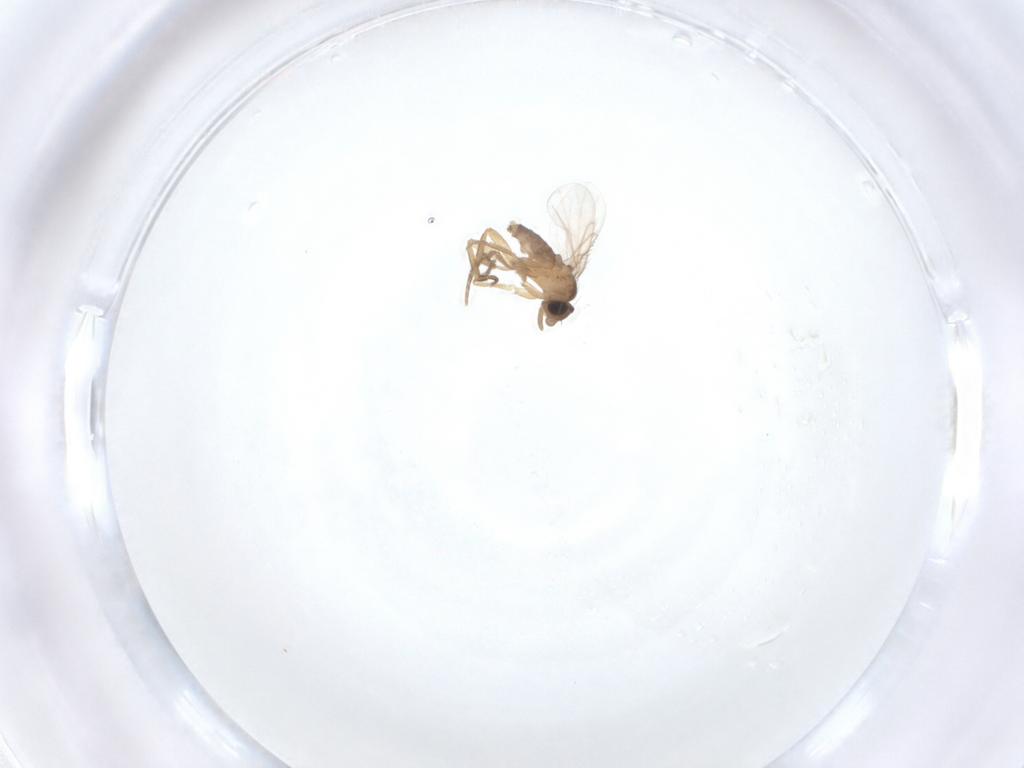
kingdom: Animalia
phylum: Arthropoda
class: Insecta
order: Diptera
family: Phoridae
